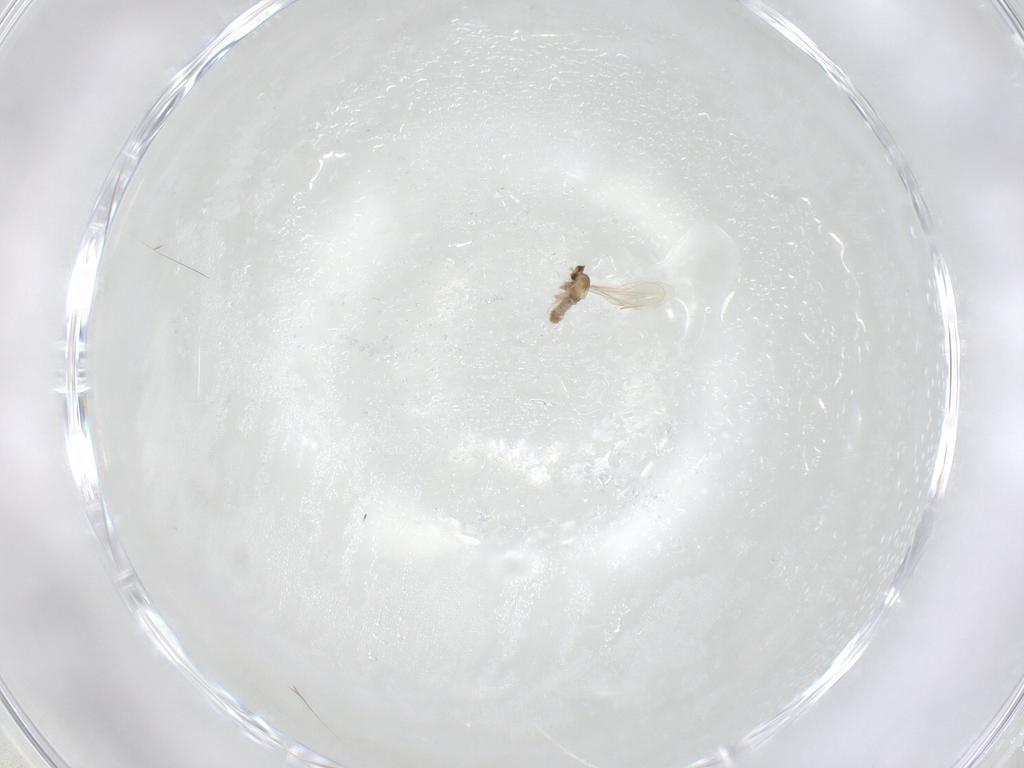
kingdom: Animalia
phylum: Arthropoda
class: Insecta
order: Diptera
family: Cecidomyiidae
